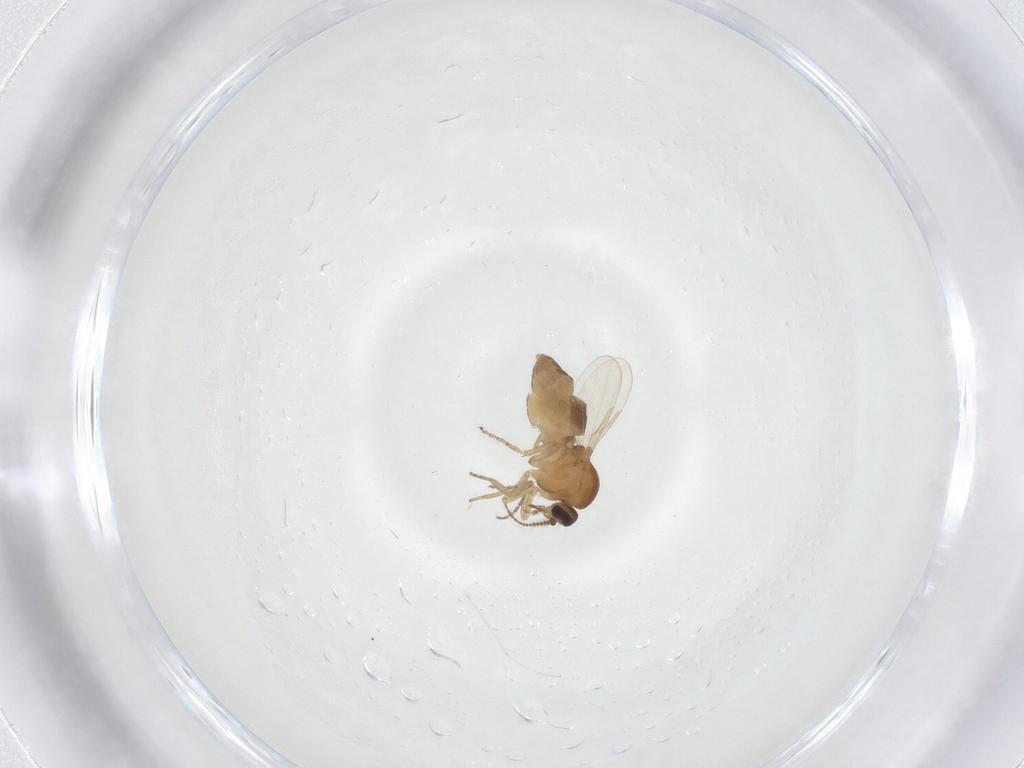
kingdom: Animalia
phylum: Arthropoda
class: Insecta
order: Diptera
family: Ceratopogonidae
